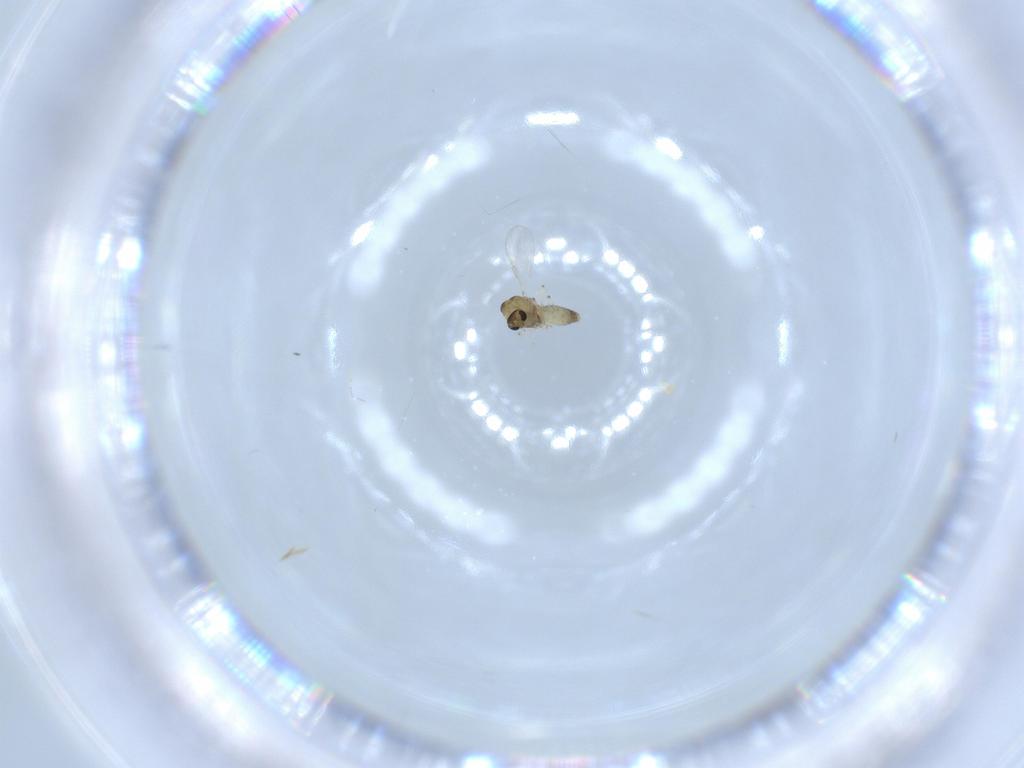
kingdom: Animalia
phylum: Arthropoda
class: Insecta
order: Diptera
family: Chironomidae
